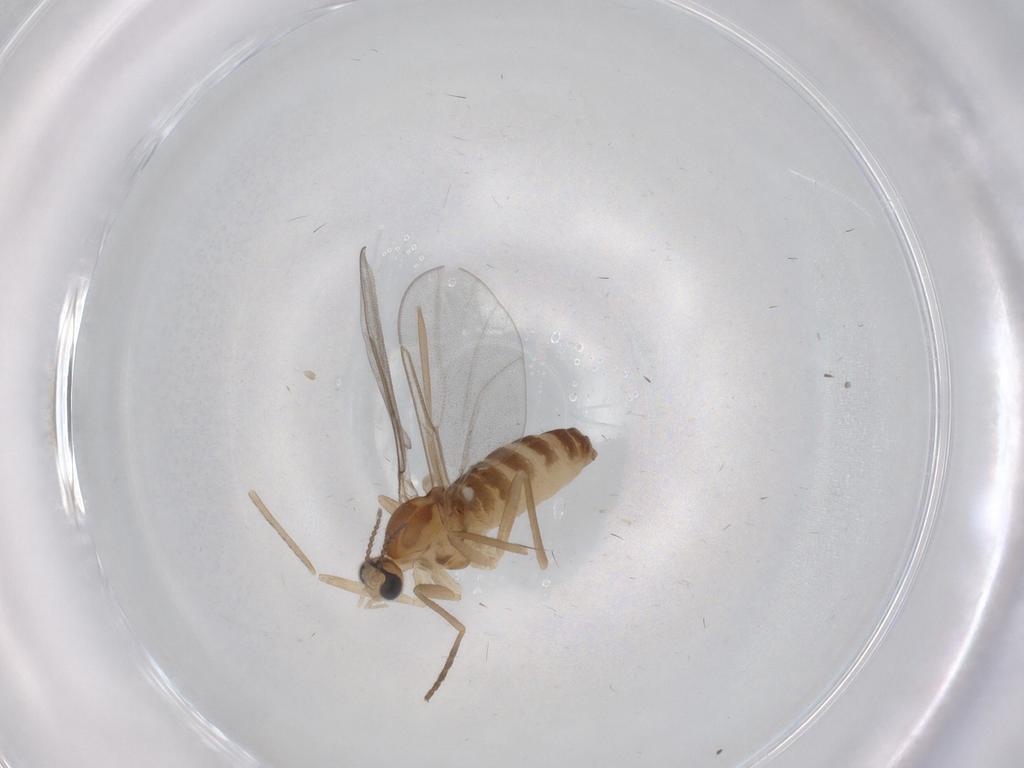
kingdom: Animalia
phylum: Arthropoda
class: Insecta
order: Diptera
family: Cecidomyiidae
